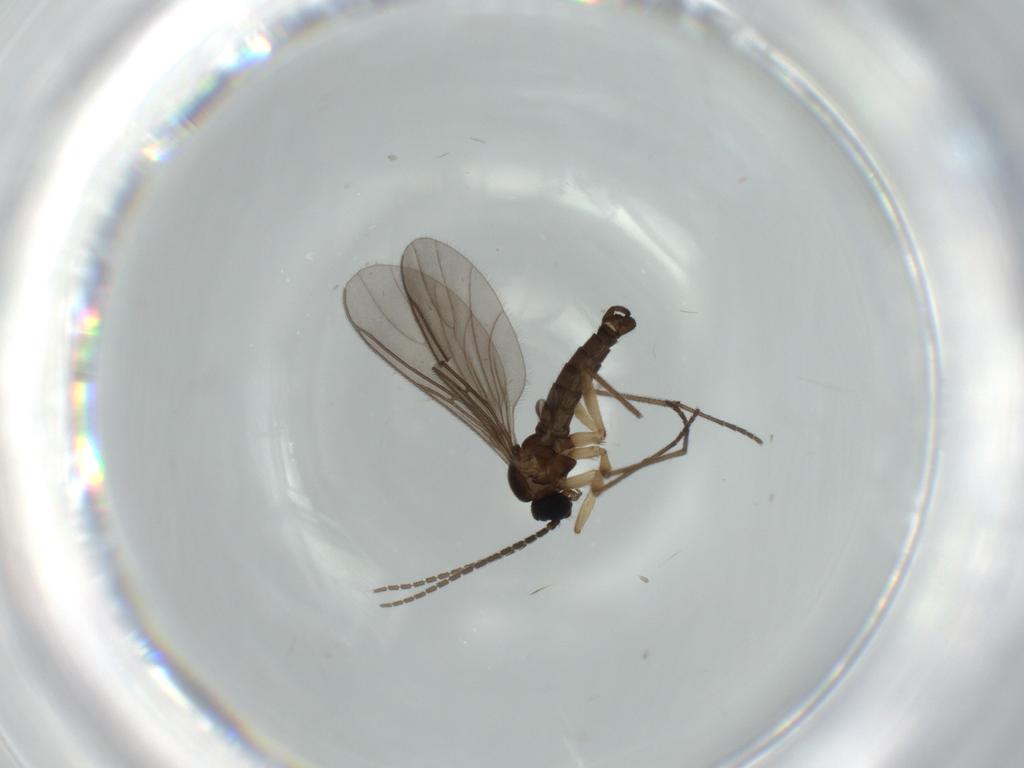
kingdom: Animalia
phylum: Arthropoda
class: Insecta
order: Diptera
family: Sciaridae
